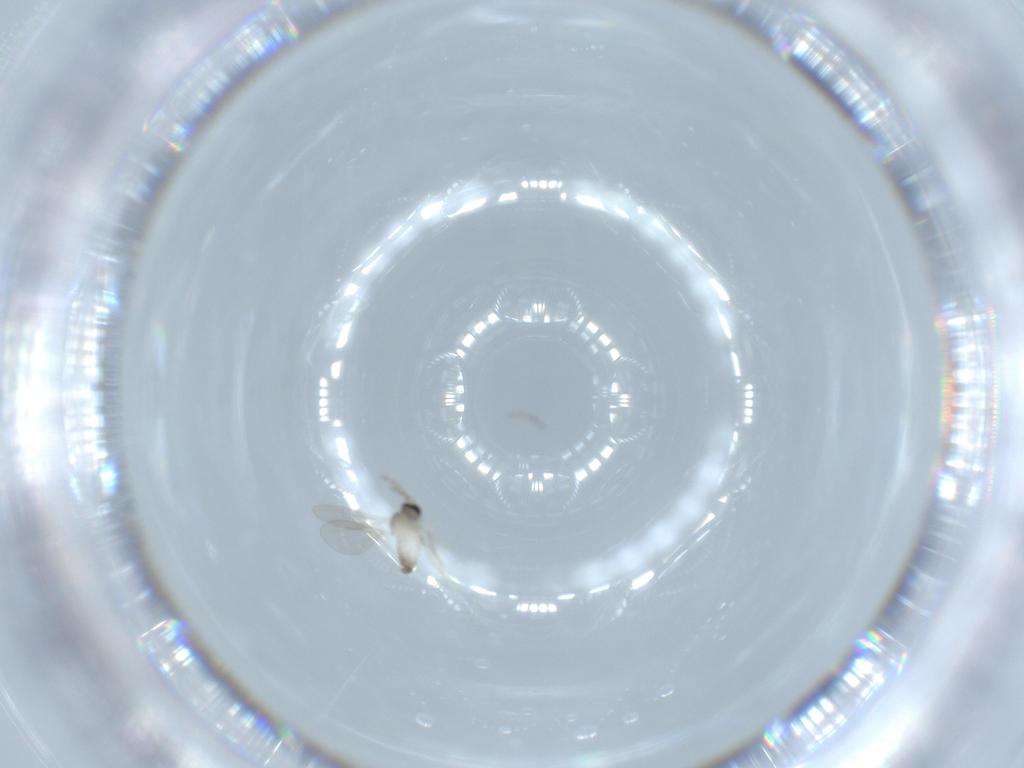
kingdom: Animalia
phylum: Arthropoda
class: Insecta
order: Diptera
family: Cecidomyiidae
